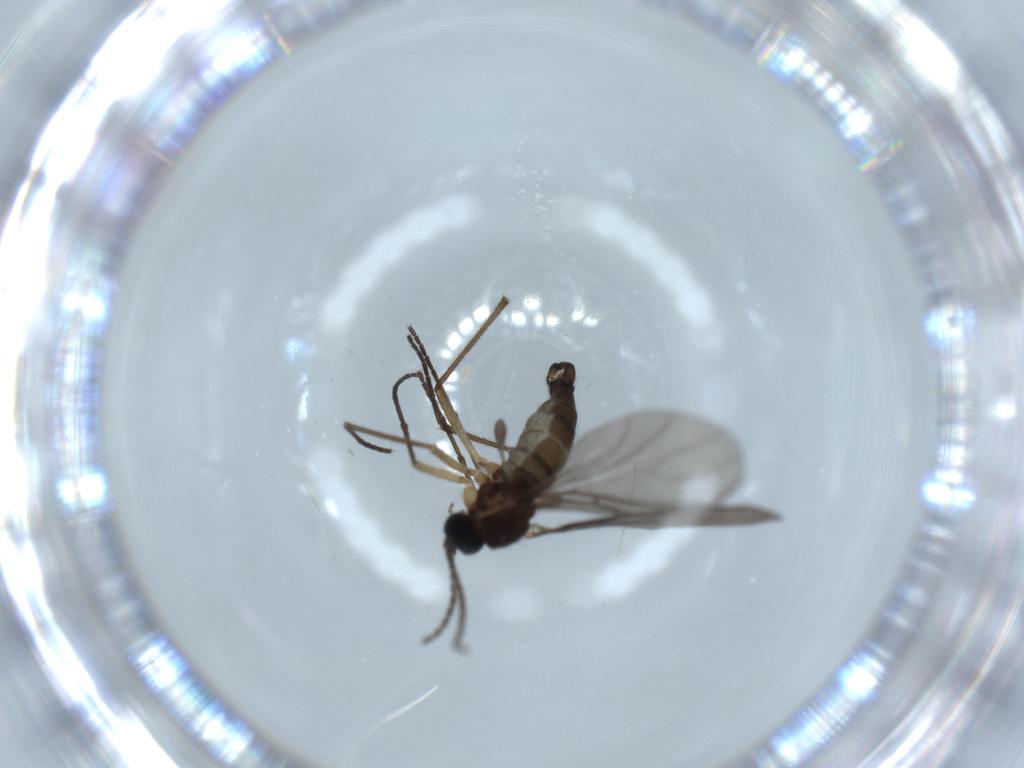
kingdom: Animalia
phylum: Arthropoda
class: Insecta
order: Diptera
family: Sciaridae
